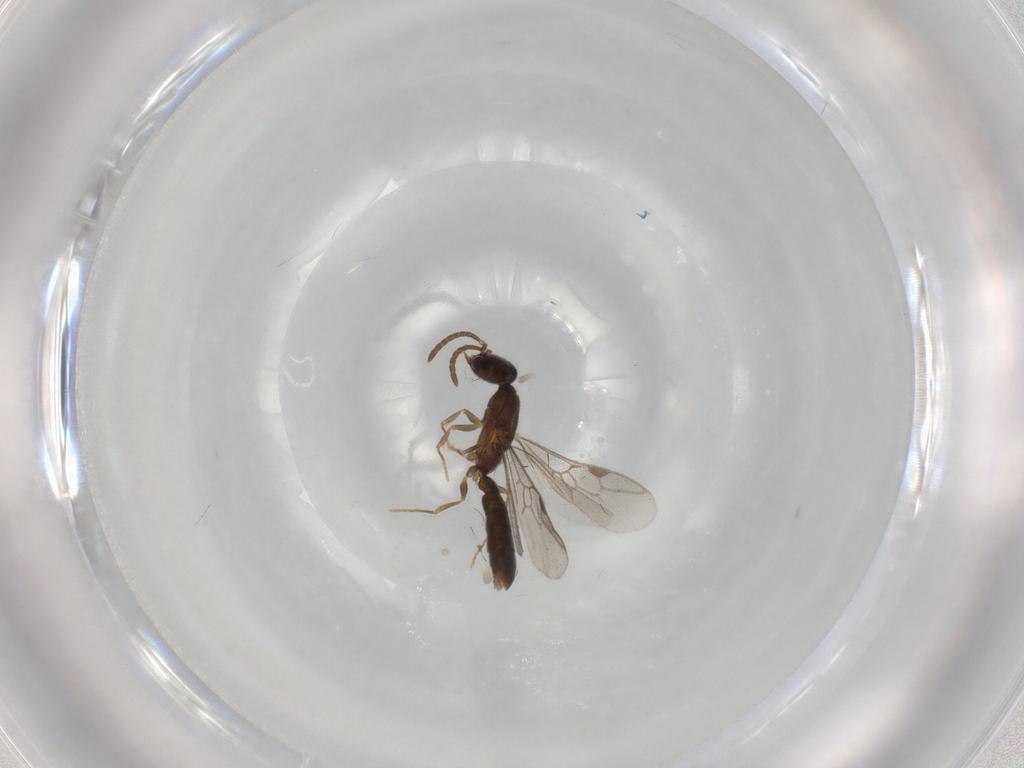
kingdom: Animalia
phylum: Arthropoda
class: Insecta
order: Hymenoptera
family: Formicidae
